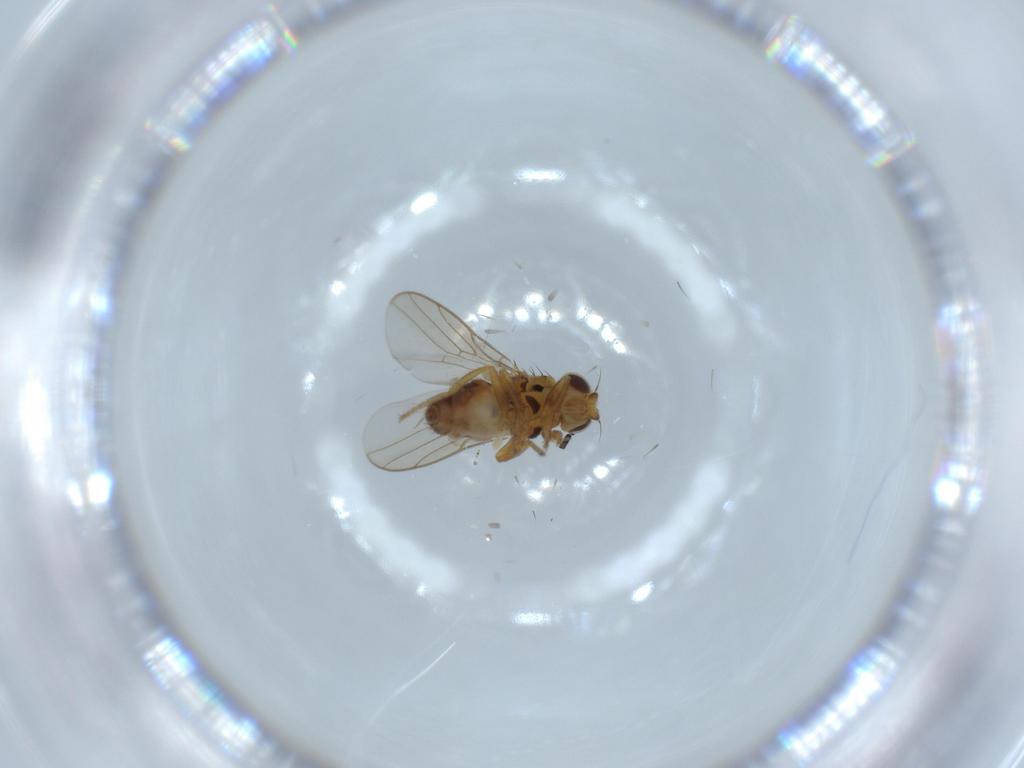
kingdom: Animalia
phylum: Arthropoda
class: Insecta
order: Diptera
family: Chloropidae
